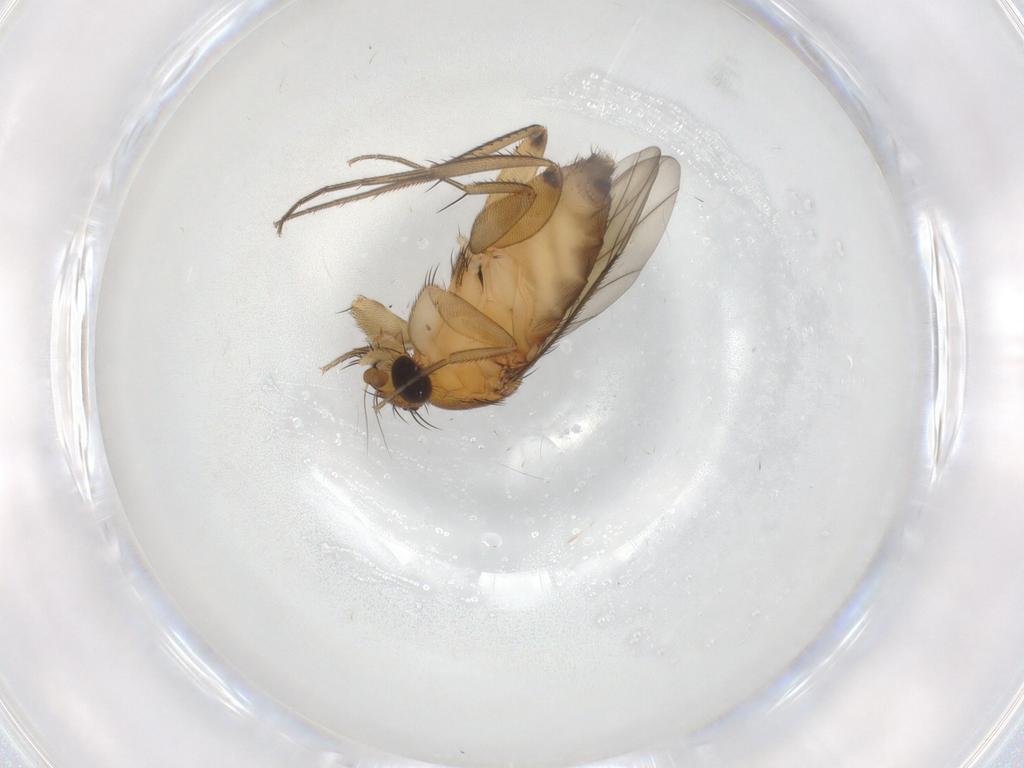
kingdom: Animalia
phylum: Arthropoda
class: Insecta
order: Diptera
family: Phoridae
